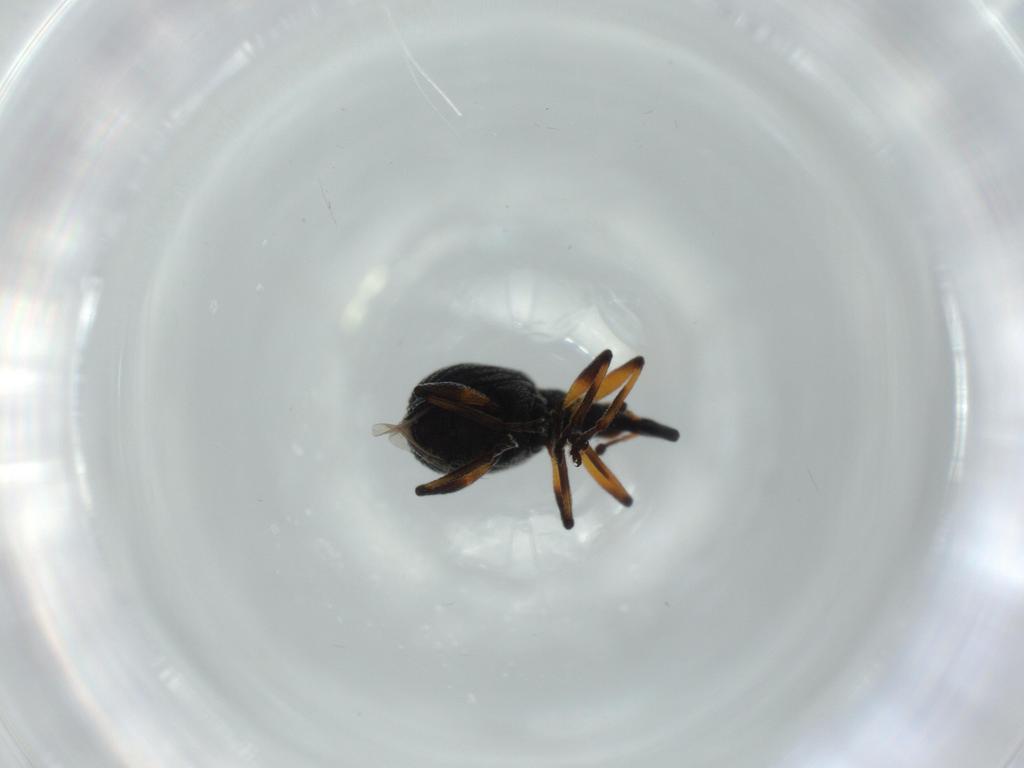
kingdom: Animalia
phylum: Arthropoda
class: Insecta
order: Coleoptera
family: Brentidae
